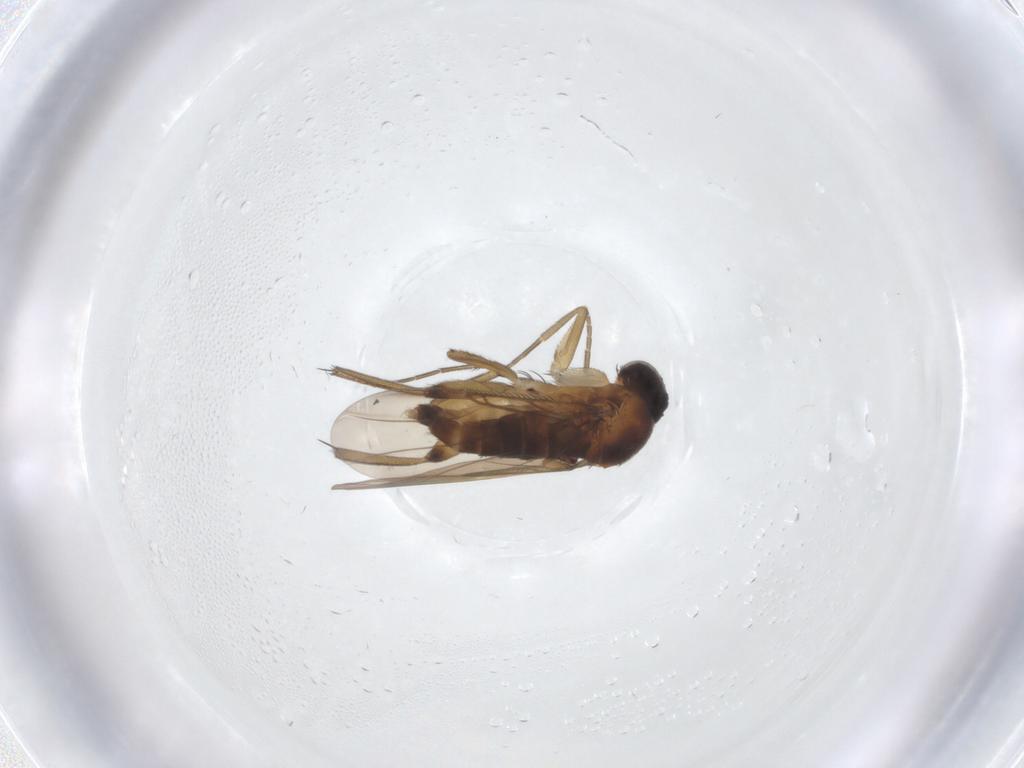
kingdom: Animalia
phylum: Arthropoda
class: Insecta
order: Diptera
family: Phoridae
